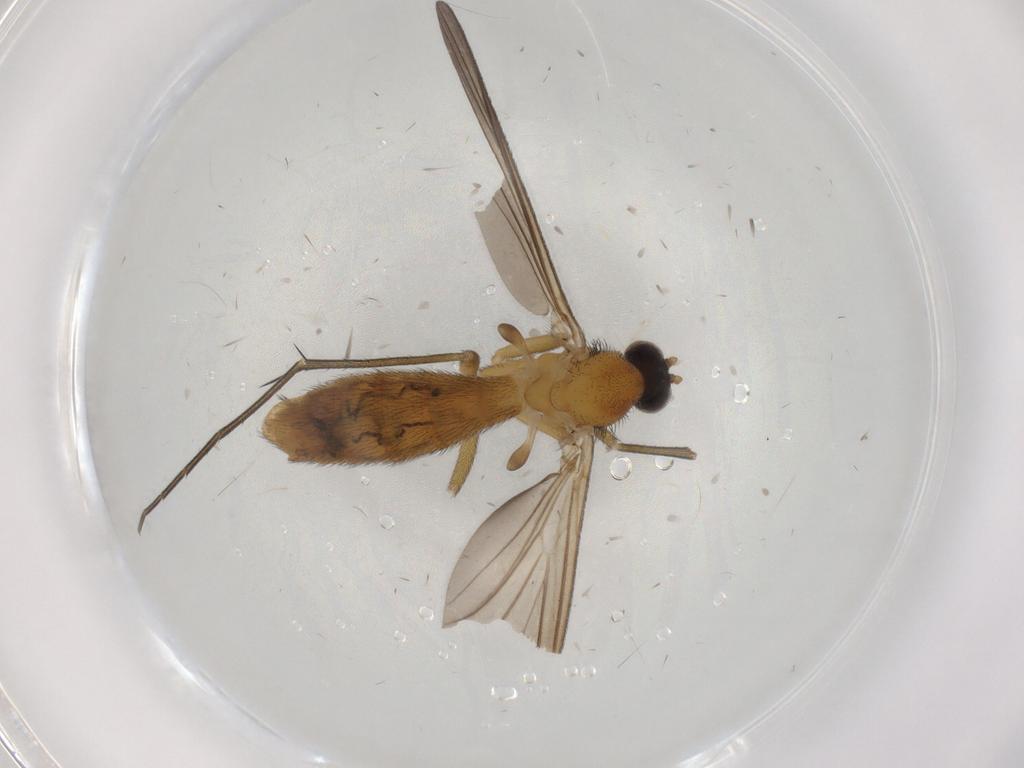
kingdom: Animalia
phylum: Arthropoda
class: Insecta
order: Diptera
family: Keroplatidae
